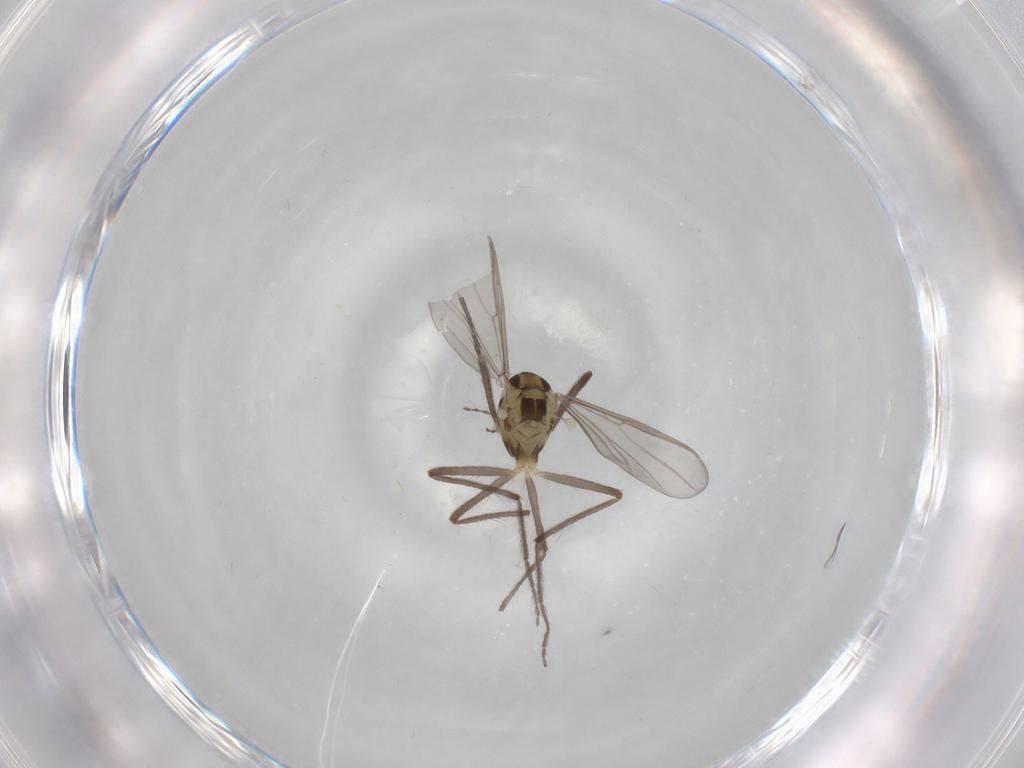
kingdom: Animalia
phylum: Arthropoda
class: Insecta
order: Diptera
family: Chironomidae
